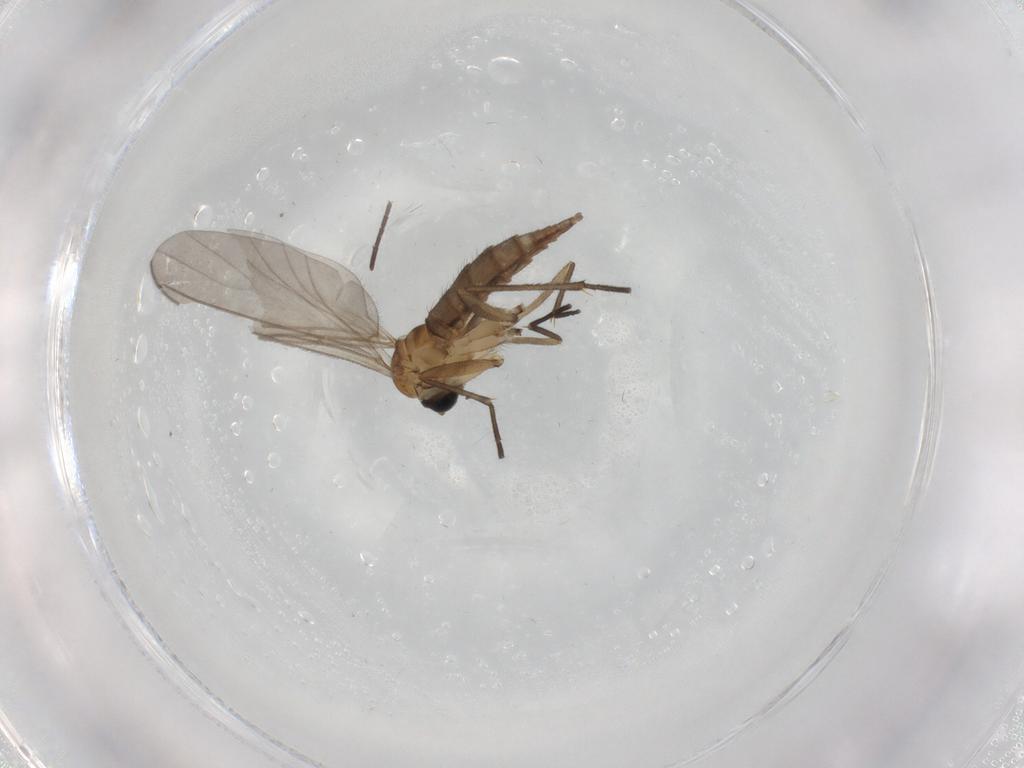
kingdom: Animalia
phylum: Arthropoda
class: Insecta
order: Diptera
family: Sciaridae
